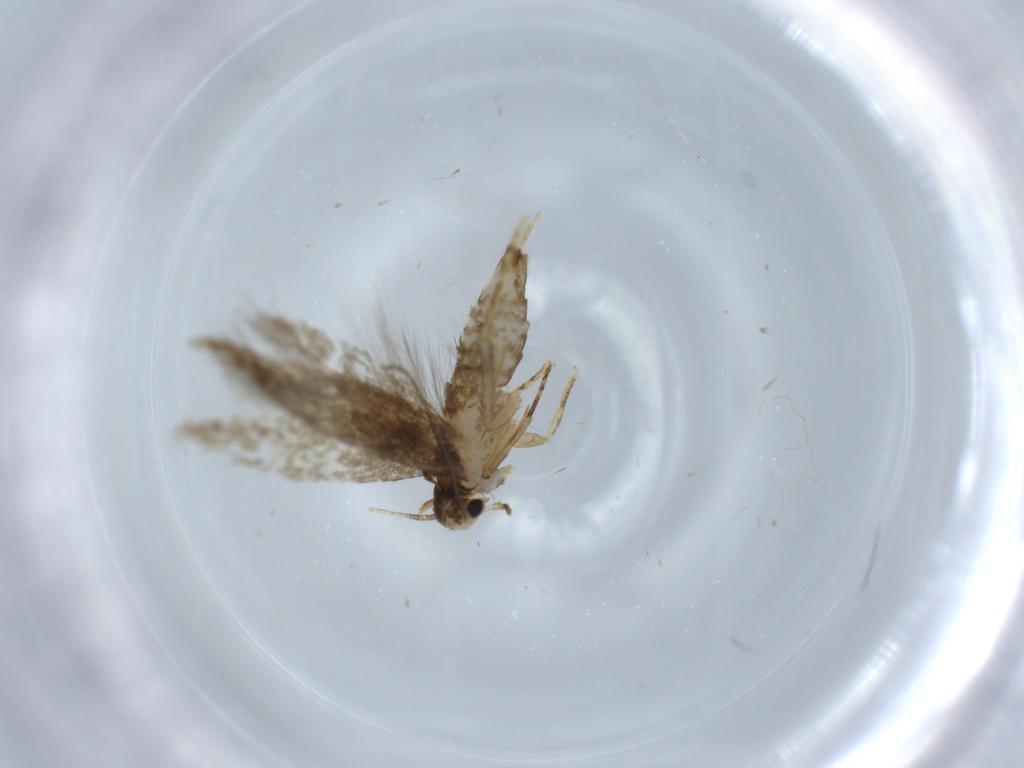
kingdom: Animalia
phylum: Arthropoda
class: Insecta
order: Lepidoptera
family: Tineidae
